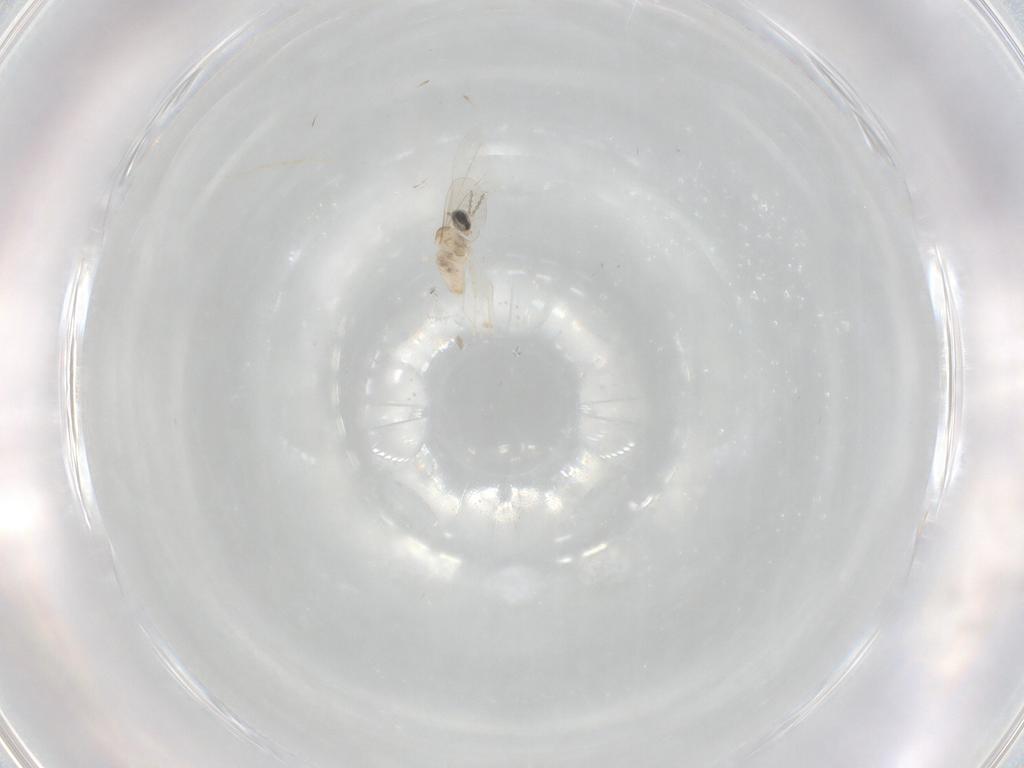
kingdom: Animalia
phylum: Arthropoda
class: Insecta
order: Diptera
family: Cecidomyiidae
